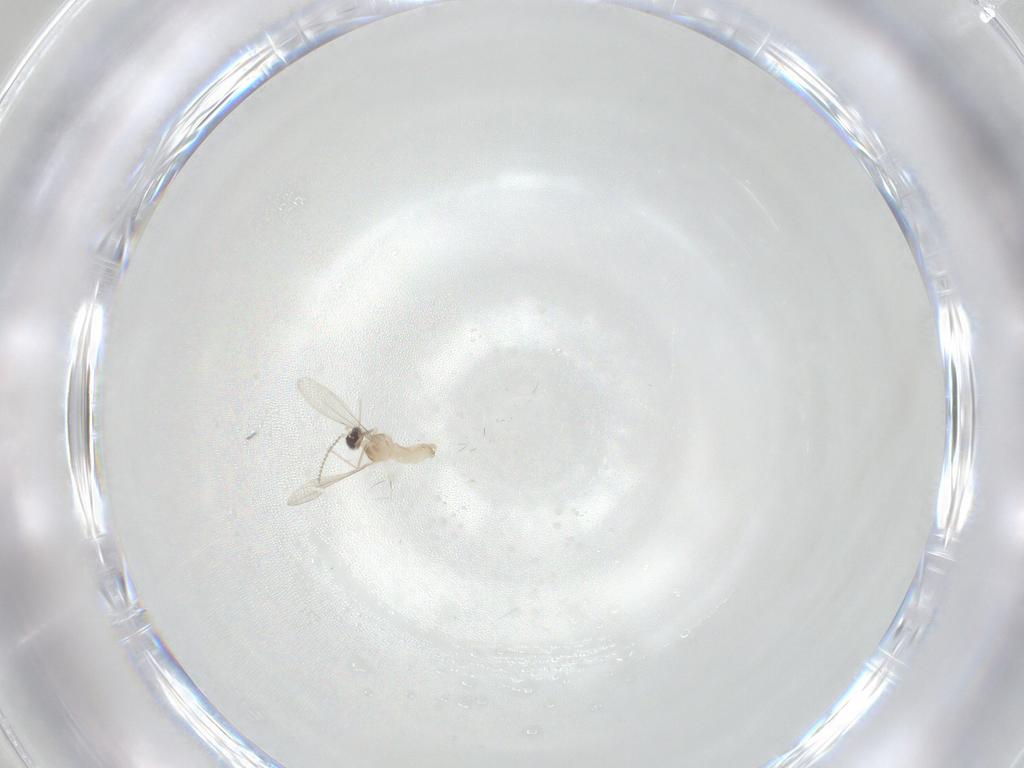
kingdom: Animalia
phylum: Arthropoda
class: Insecta
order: Diptera
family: Cecidomyiidae
